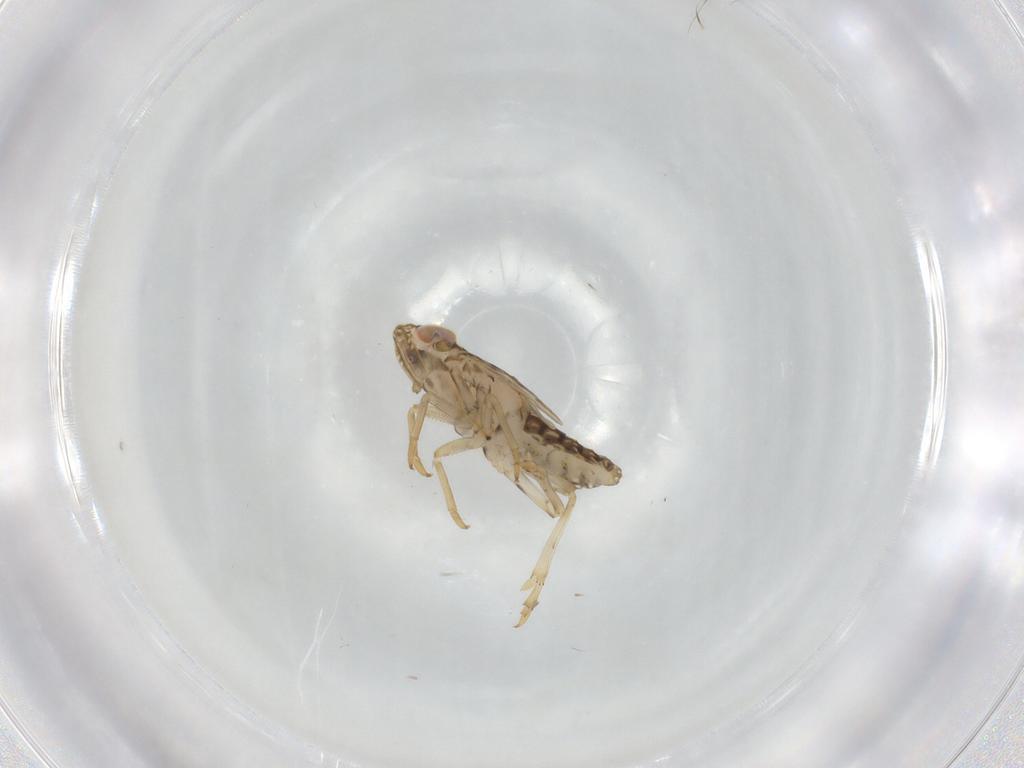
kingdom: Animalia
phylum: Arthropoda
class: Insecta
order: Hemiptera
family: Delphacidae
